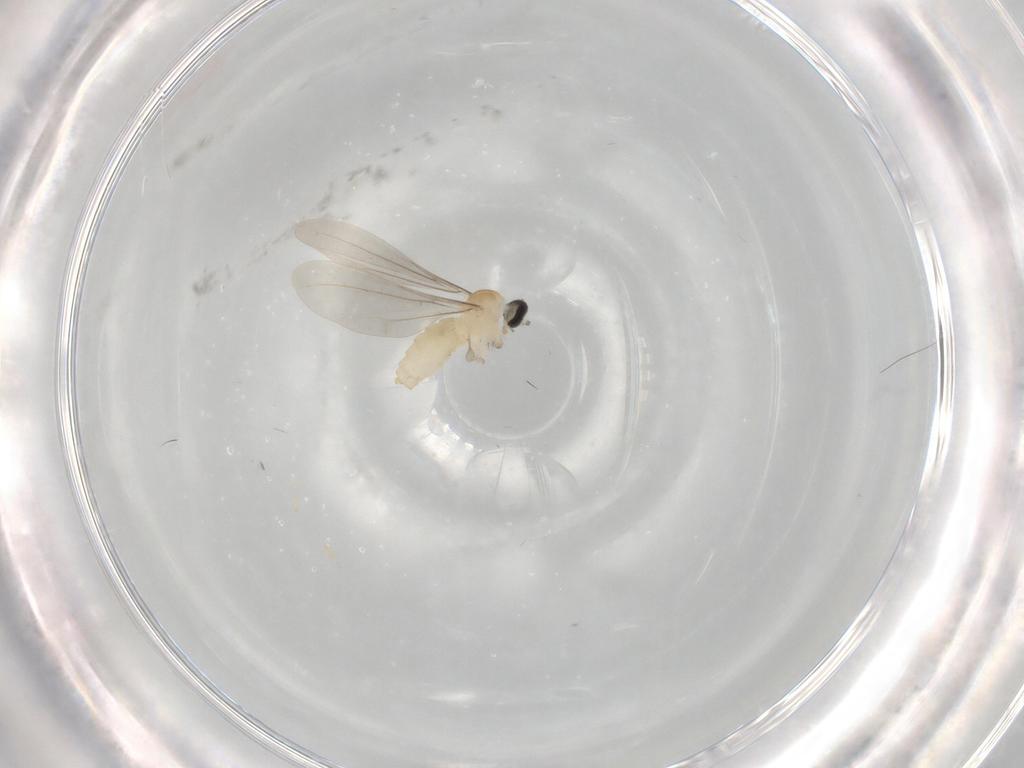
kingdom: Animalia
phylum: Arthropoda
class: Insecta
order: Diptera
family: Cecidomyiidae
